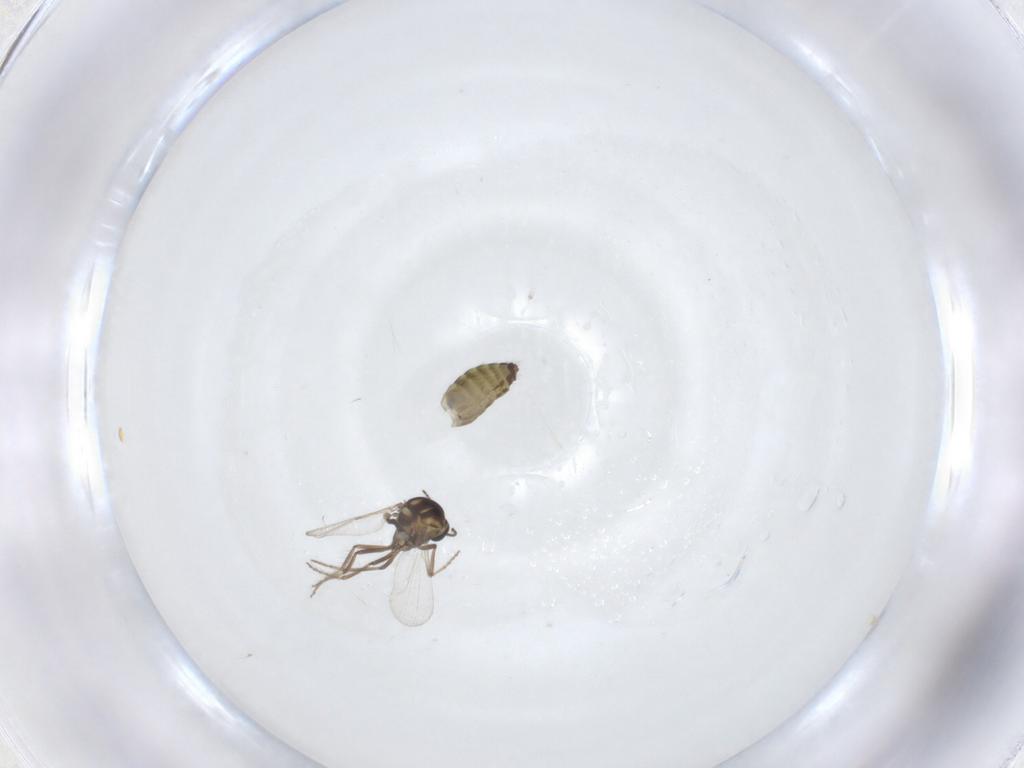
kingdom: Animalia
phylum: Arthropoda
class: Insecta
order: Diptera
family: Ceratopogonidae
